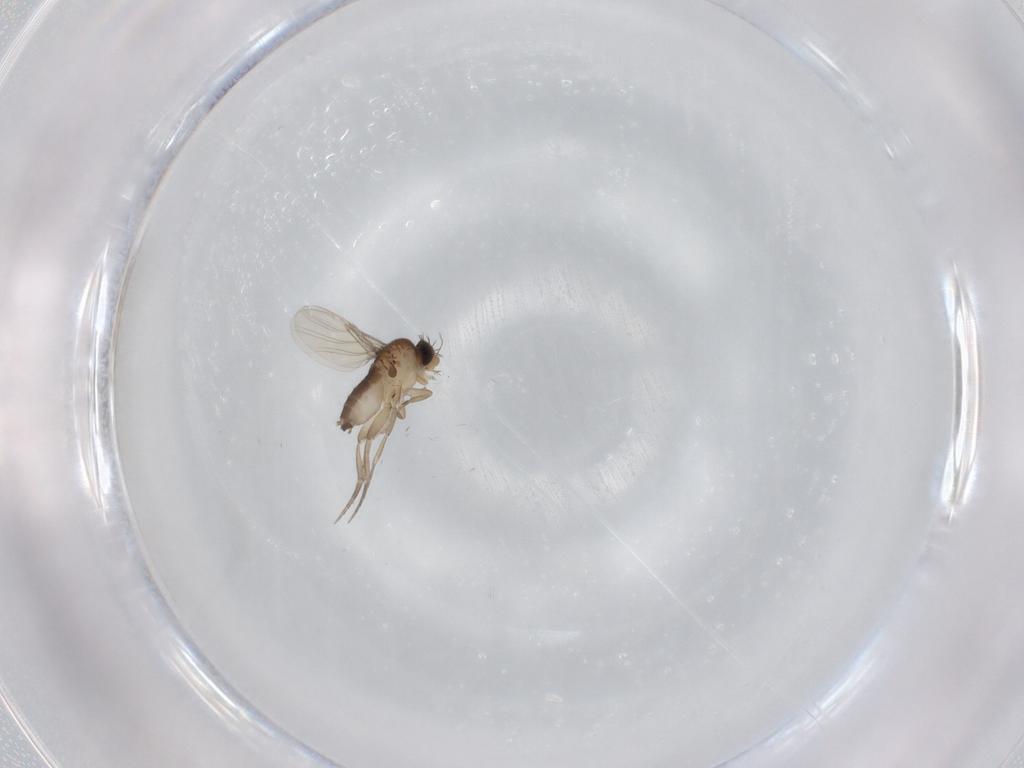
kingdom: Animalia
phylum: Arthropoda
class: Insecta
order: Diptera
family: Phoridae
